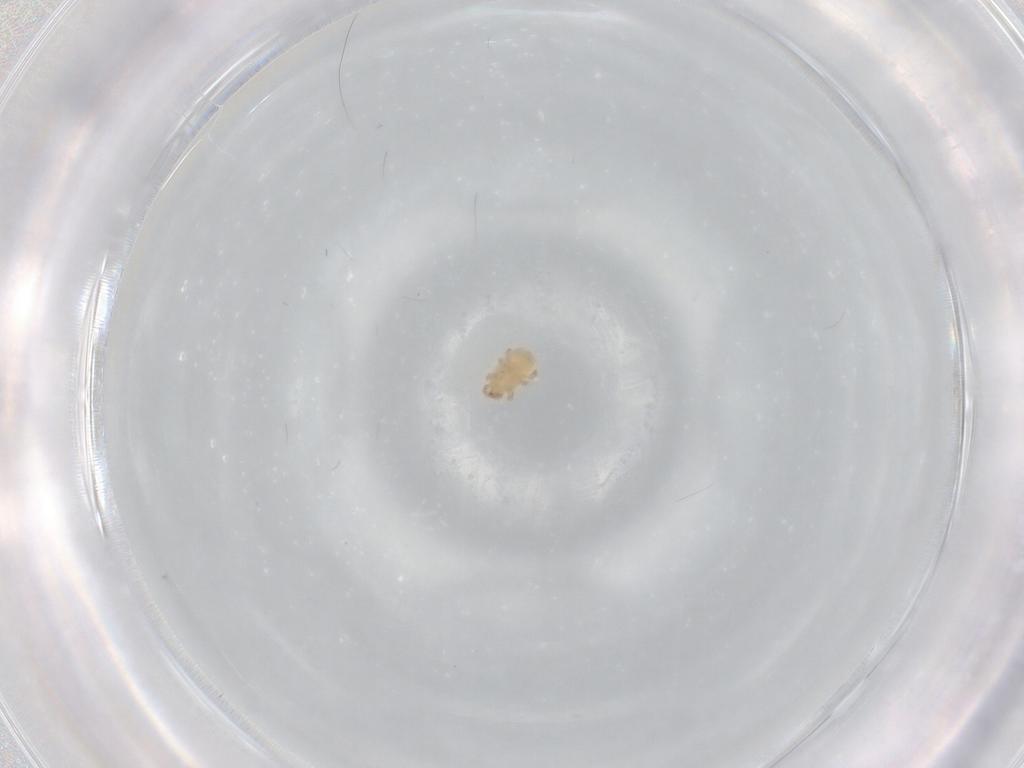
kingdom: Animalia
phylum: Arthropoda
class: Arachnida
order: Mesostigmata
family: Halolaelapidae
